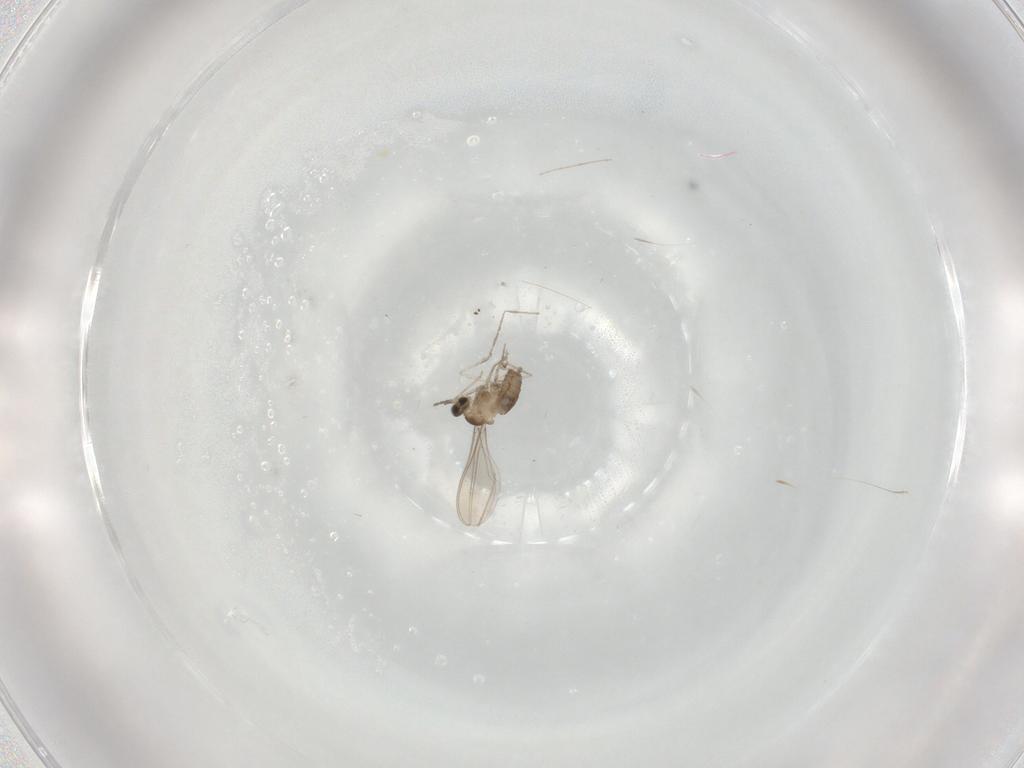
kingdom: Animalia
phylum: Arthropoda
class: Insecta
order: Diptera
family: Cecidomyiidae
